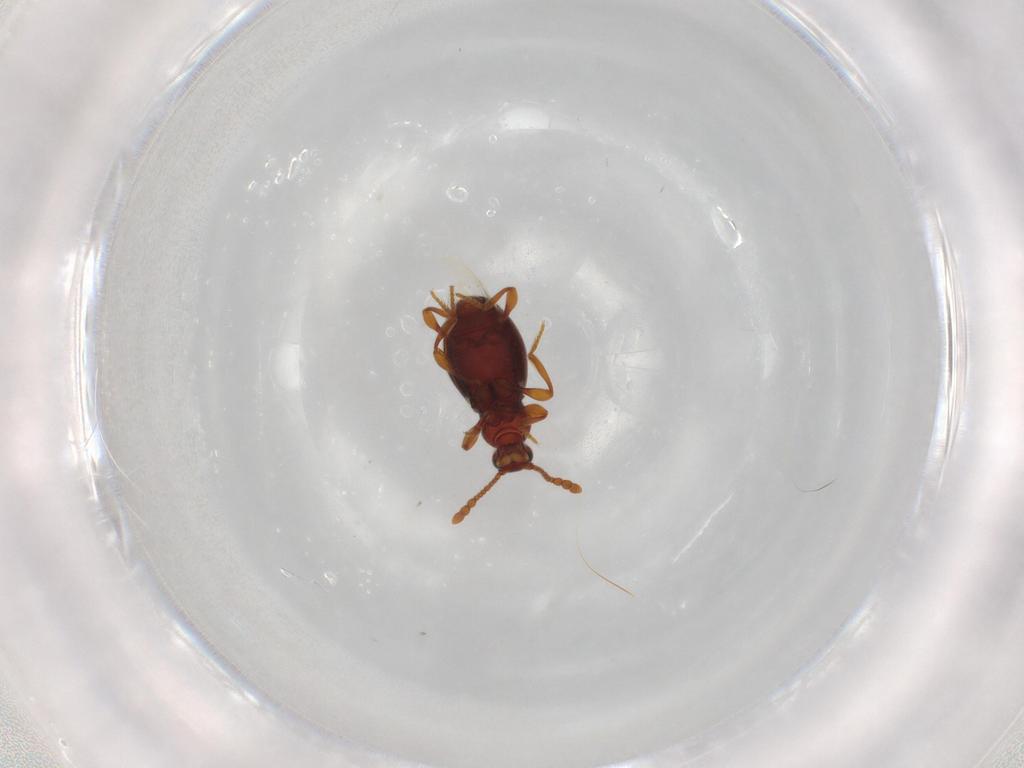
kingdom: Animalia
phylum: Arthropoda
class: Insecta
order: Coleoptera
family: Staphylinidae
